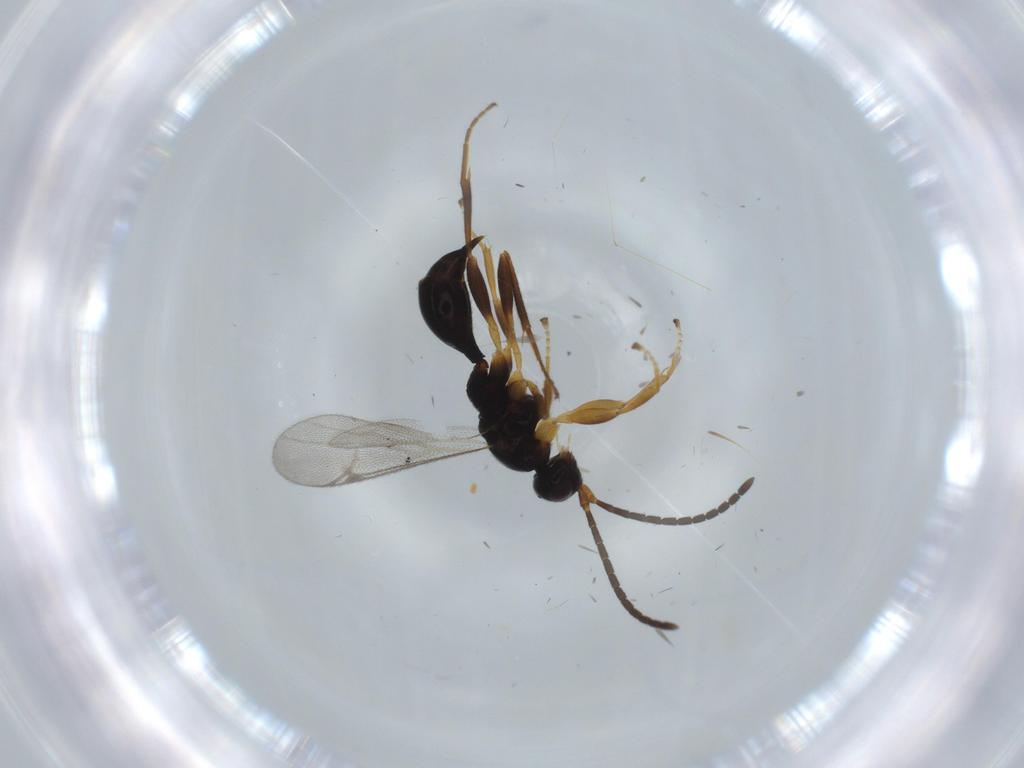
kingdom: Animalia
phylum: Arthropoda
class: Insecta
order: Hymenoptera
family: Proctotrupidae
